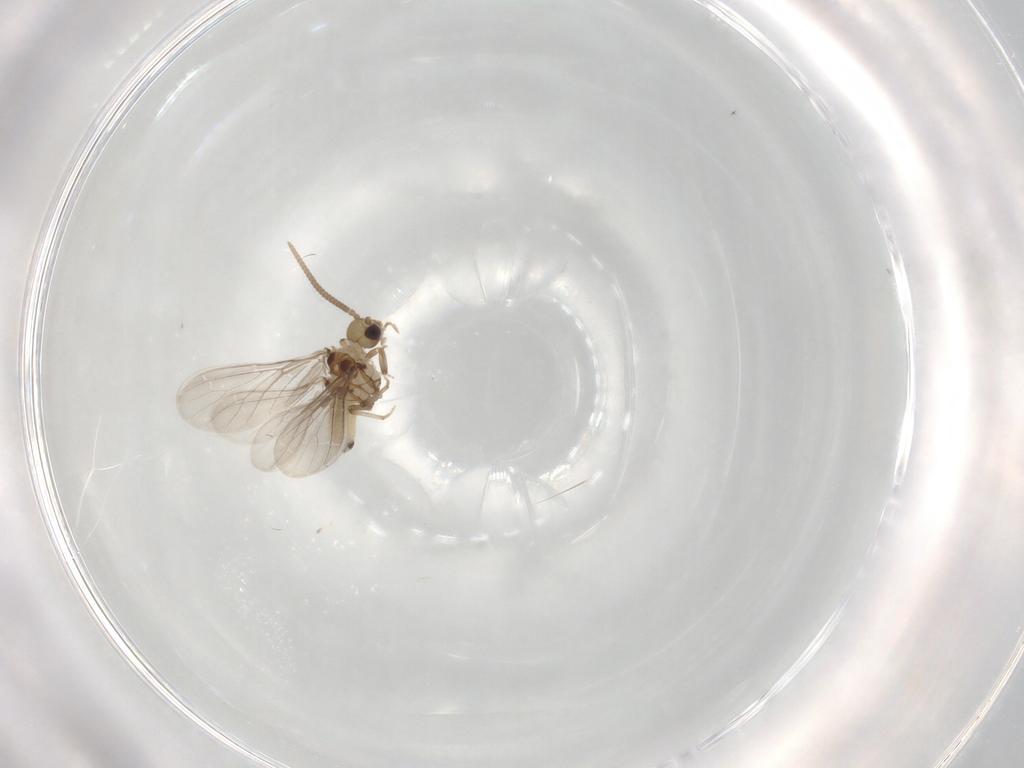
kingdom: Animalia
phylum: Arthropoda
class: Insecta
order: Neuroptera
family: Coniopterygidae
